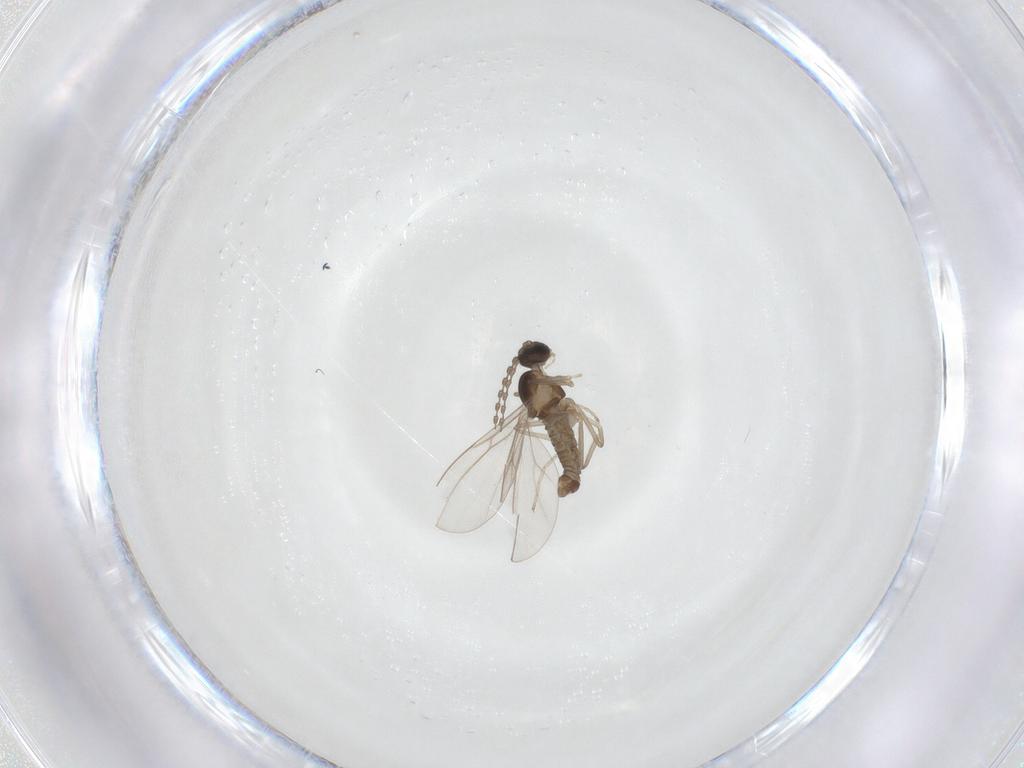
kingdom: Animalia
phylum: Arthropoda
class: Insecta
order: Diptera
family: Cecidomyiidae
